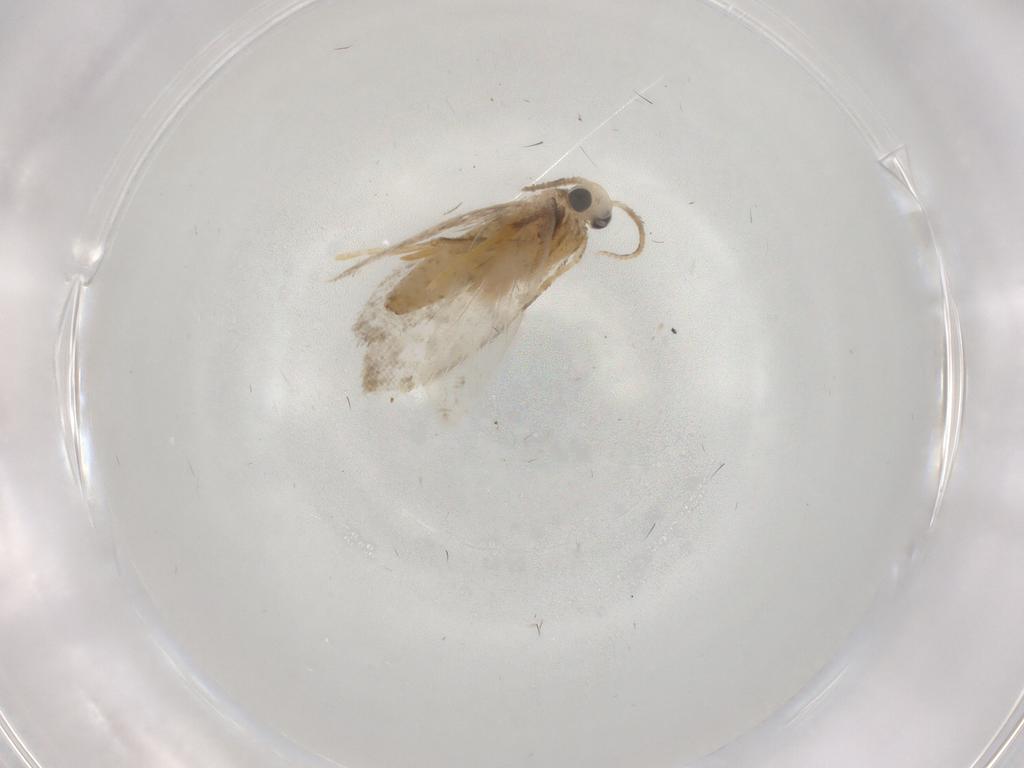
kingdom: Animalia
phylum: Arthropoda
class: Insecta
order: Lepidoptera
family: Psychidae
